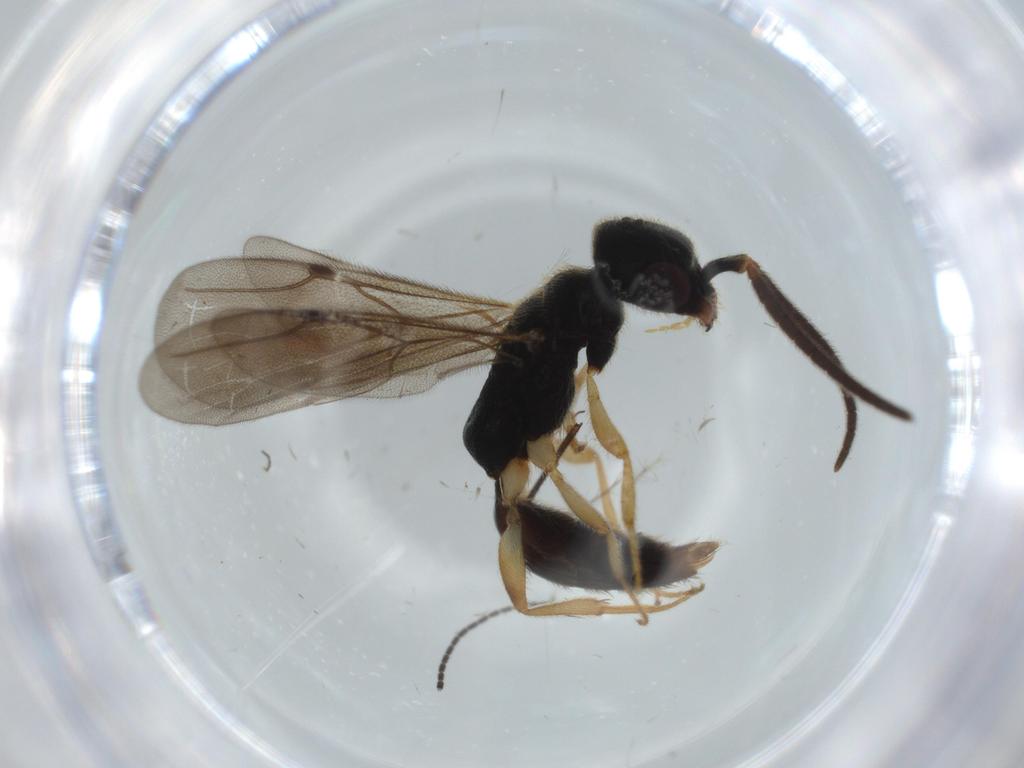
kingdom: Animalia
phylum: Arthropoda
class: Insecta
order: Hymenoptera
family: Bethylidae
